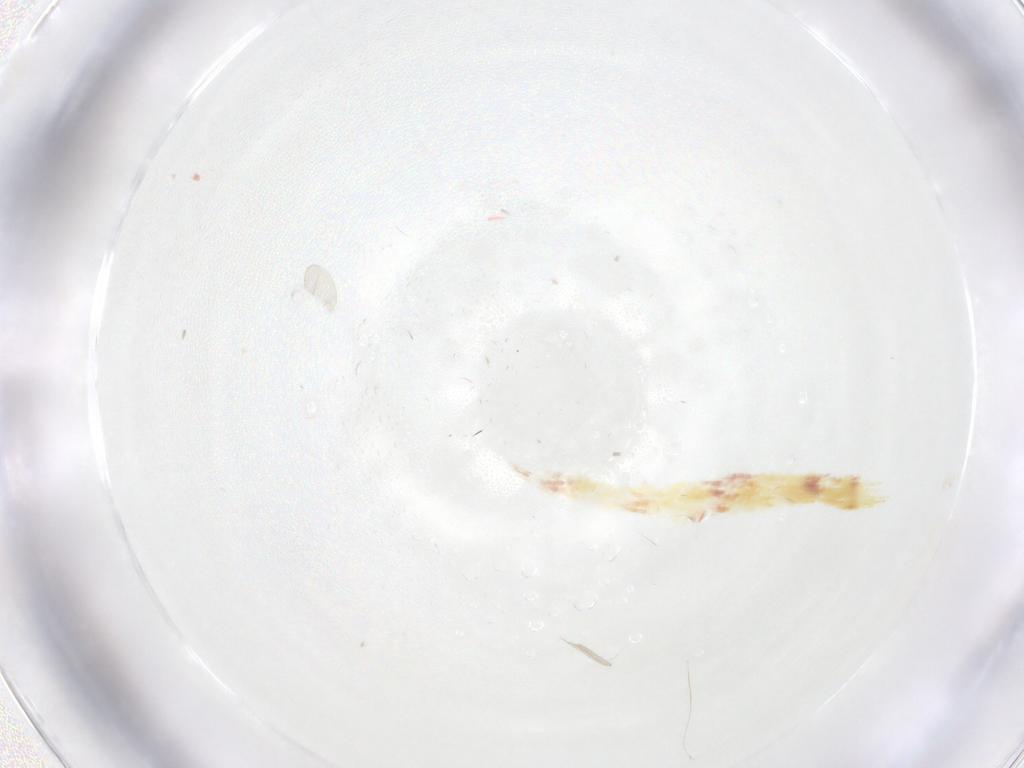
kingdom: Animalia
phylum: Arthropoda
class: Insecta
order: Diptera
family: Cecidomyiidae
